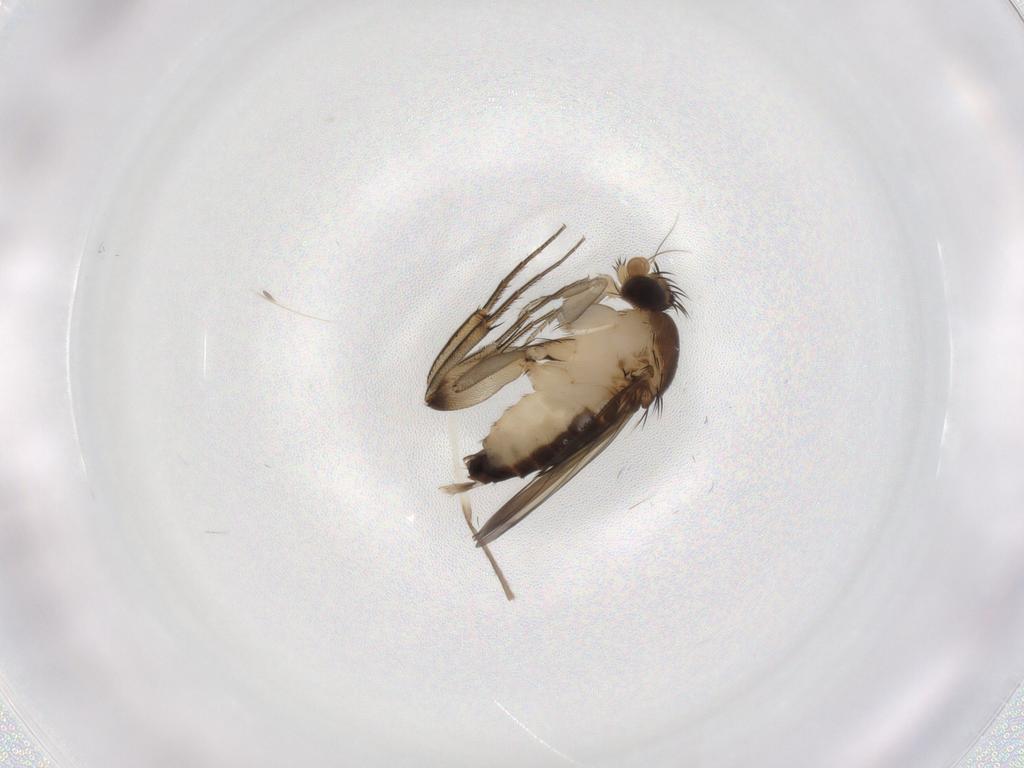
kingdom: Animalia
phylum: Arthropoda
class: Insecta
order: Diptera
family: Phoridae
